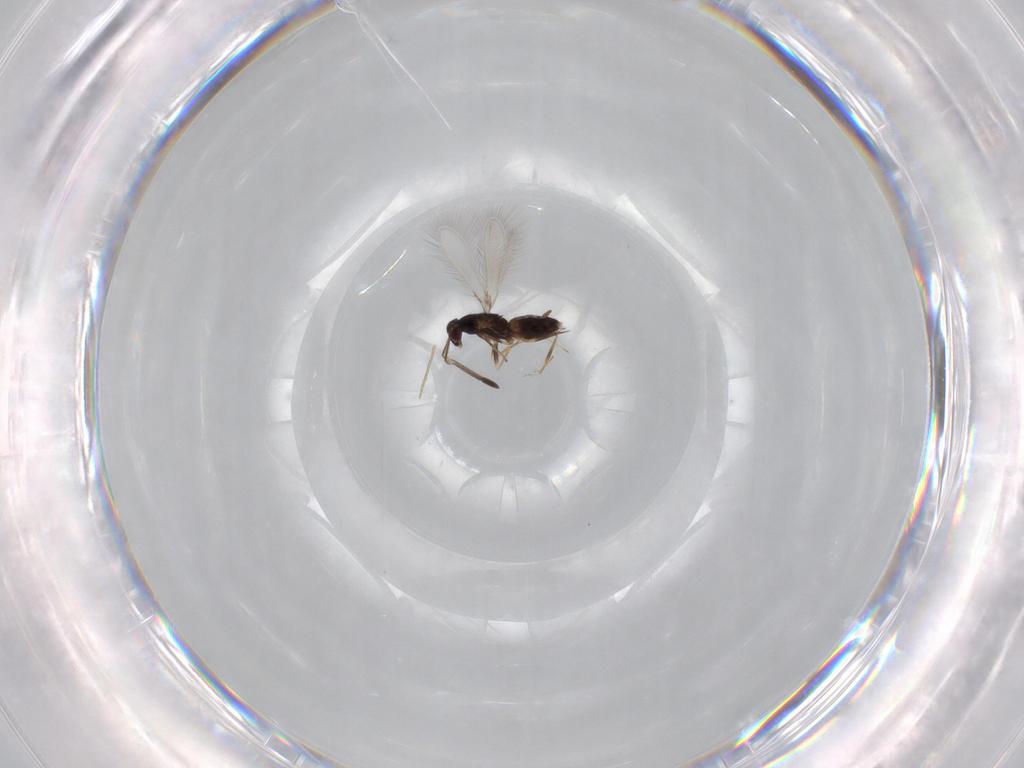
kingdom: Animalia
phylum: Arthropoda
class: Insecta
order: Hymenoptera
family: Mymaridae
